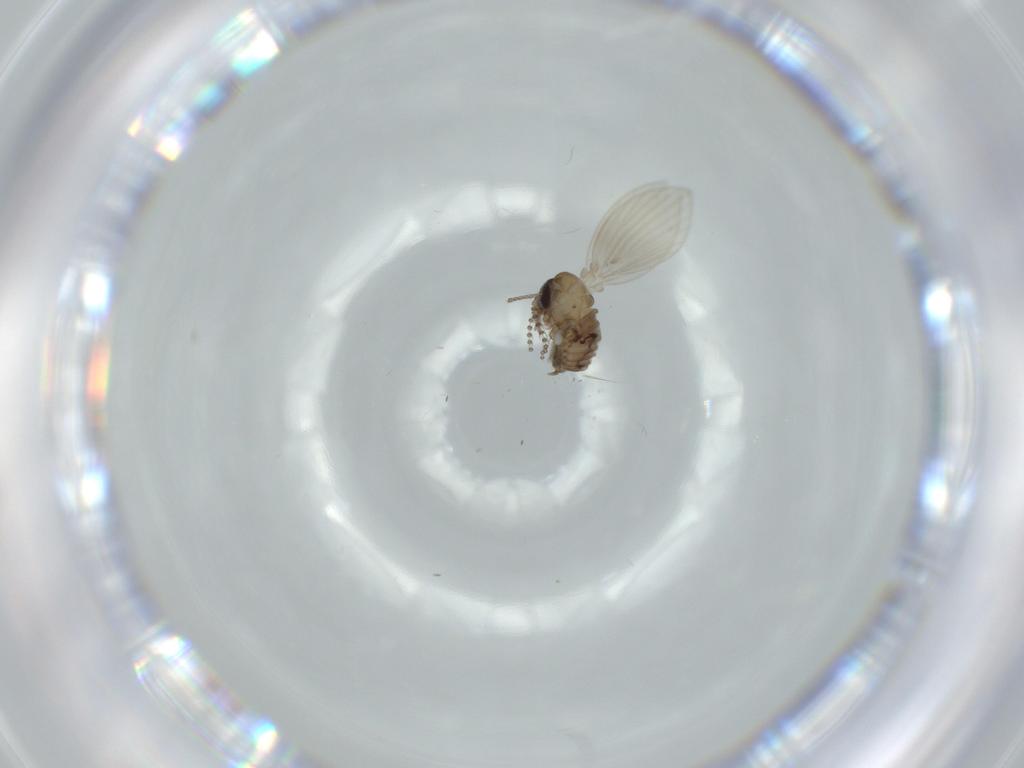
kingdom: Animalia
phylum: Arthropoda
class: Insecta
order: Diptera
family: Psychodidae
